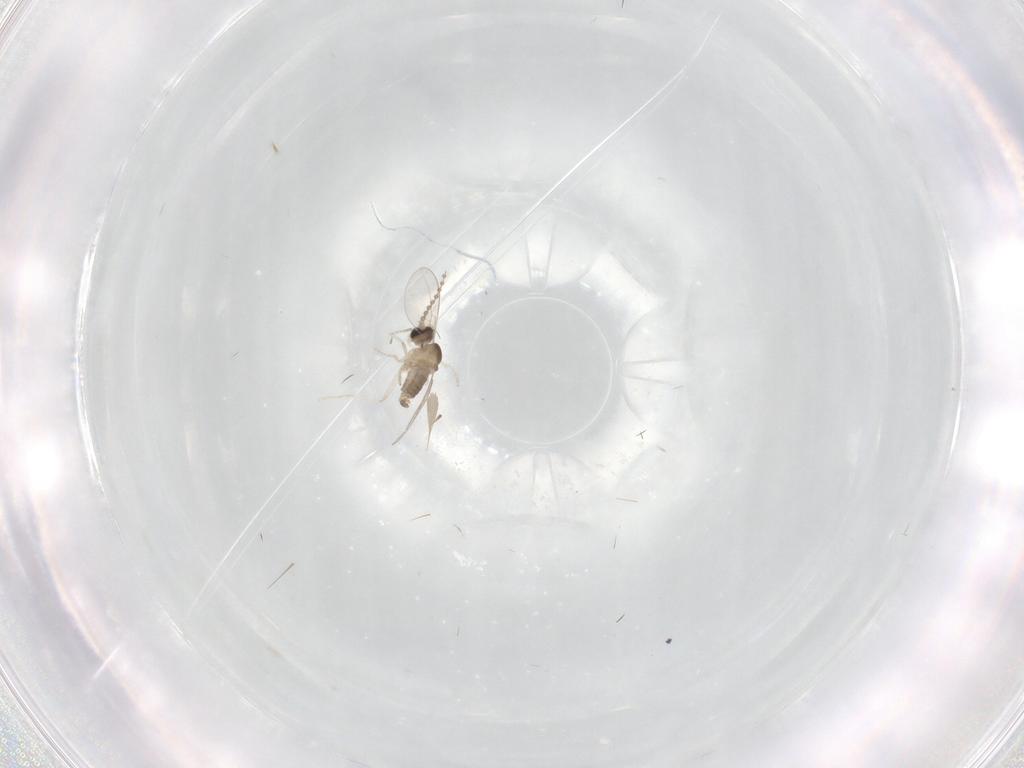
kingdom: Animalia
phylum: Arthropoda
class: Insecta
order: Diptera
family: Cecidomyiidae
